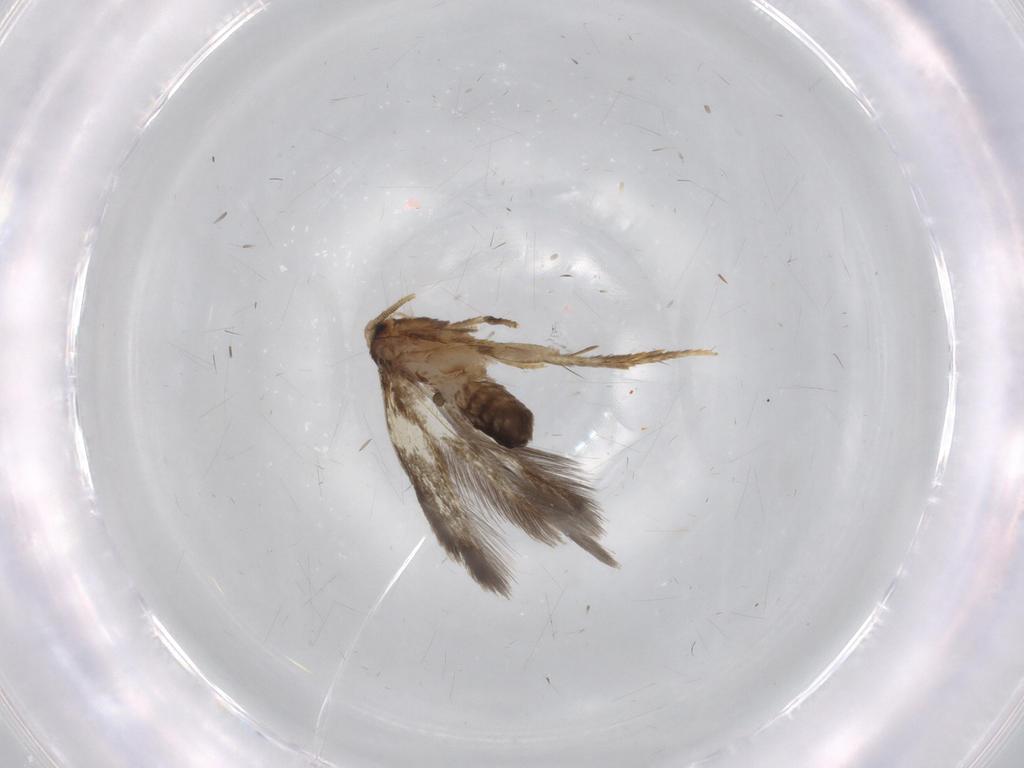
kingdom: Animalia
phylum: Arthropoda
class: Insecta
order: Lepidoptera
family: Nepticulidae
